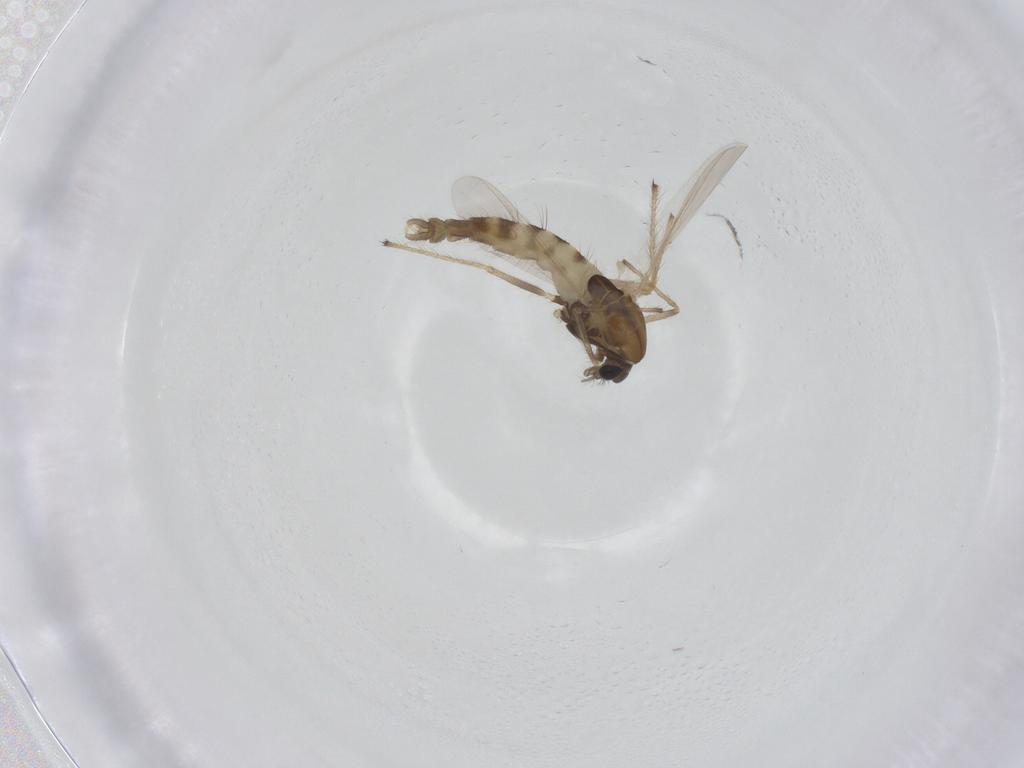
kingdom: Animalia
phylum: Arthropoda
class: Insecta
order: Diptera
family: Chironomidae
